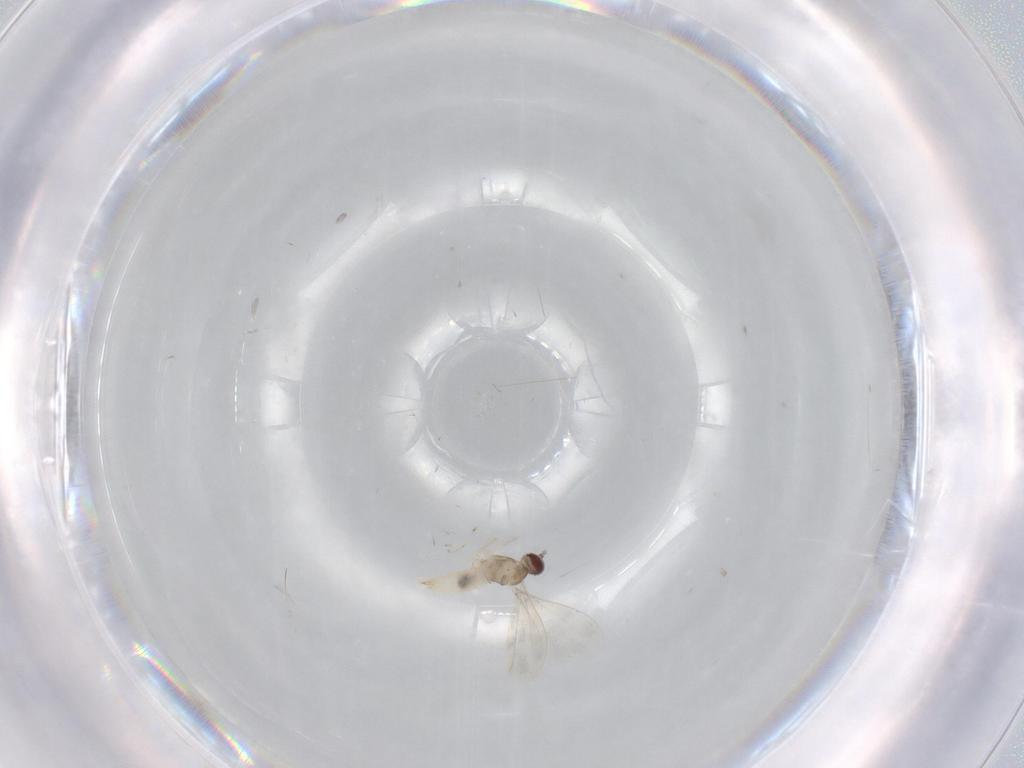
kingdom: Animalia
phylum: Arthropoda
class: Insecta
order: Diptera
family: Cecidomyiidae
